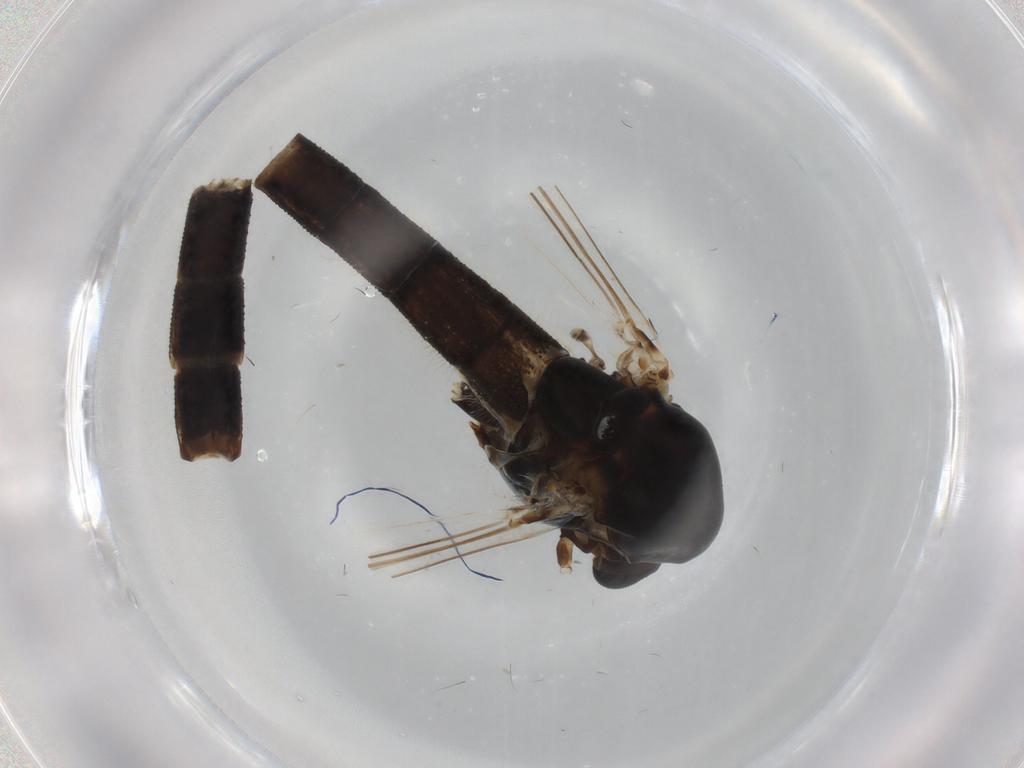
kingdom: Animalia
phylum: Arthropoda
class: Insecta
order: Diptera
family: Chironomidae
